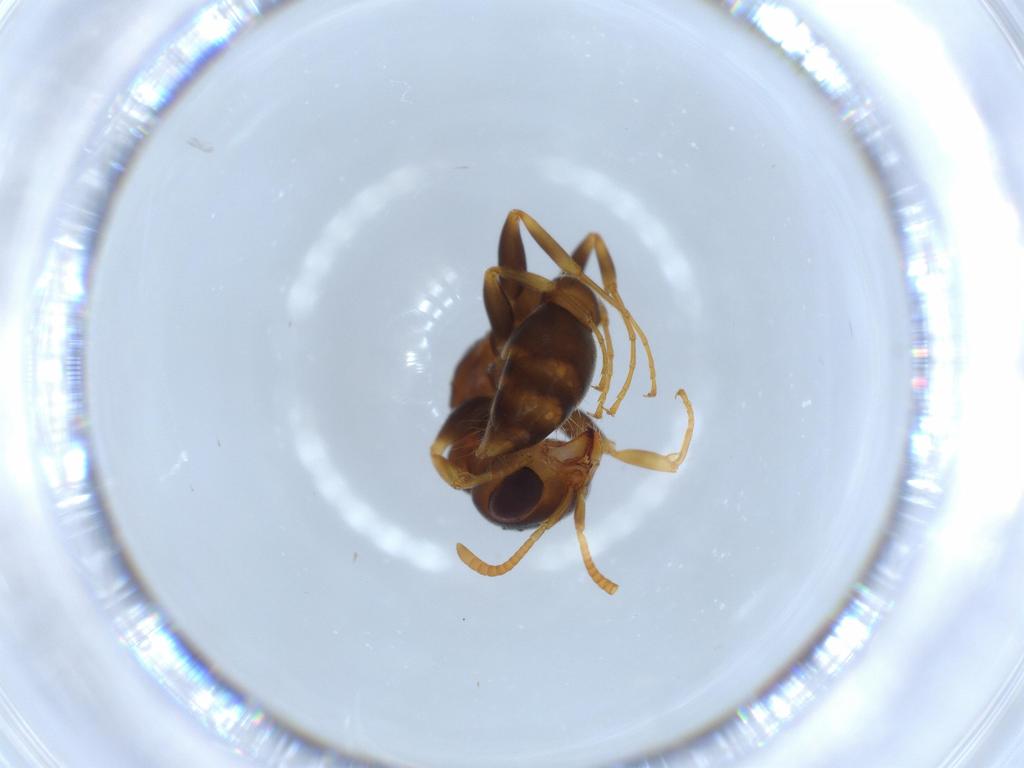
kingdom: Animalia
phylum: Arthropoda
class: Insecta
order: Hymenoptera
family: Formicidae
